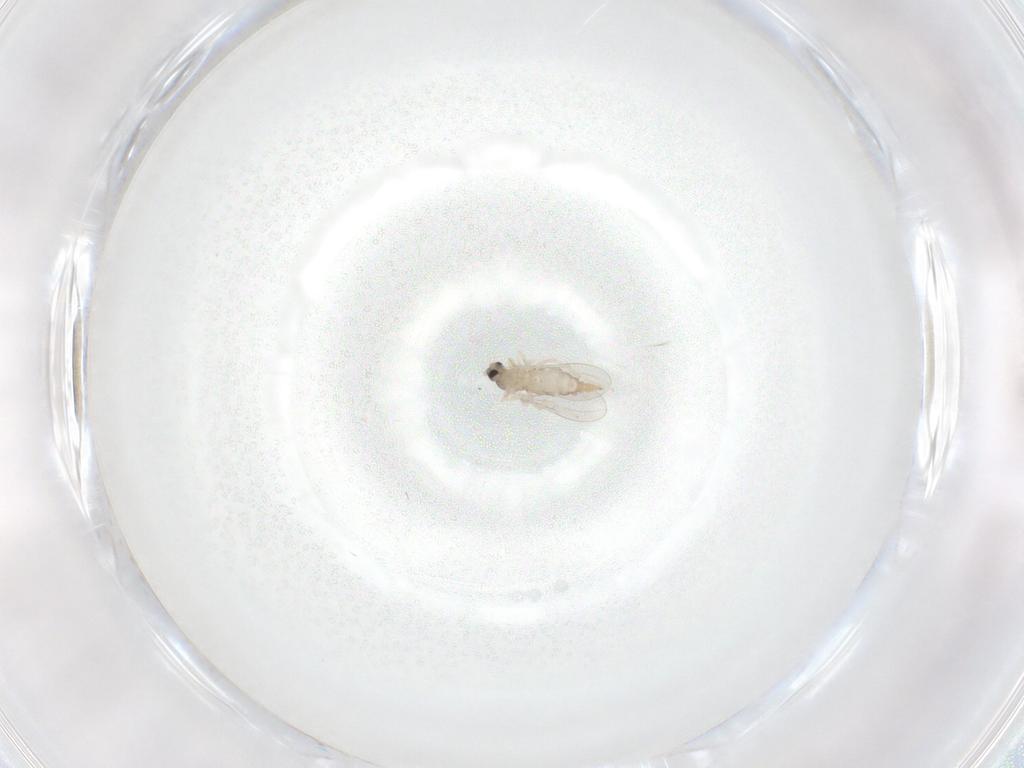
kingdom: Animalia
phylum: Arthropoda
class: Insecta
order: Diptera
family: Cecidomyiidae
